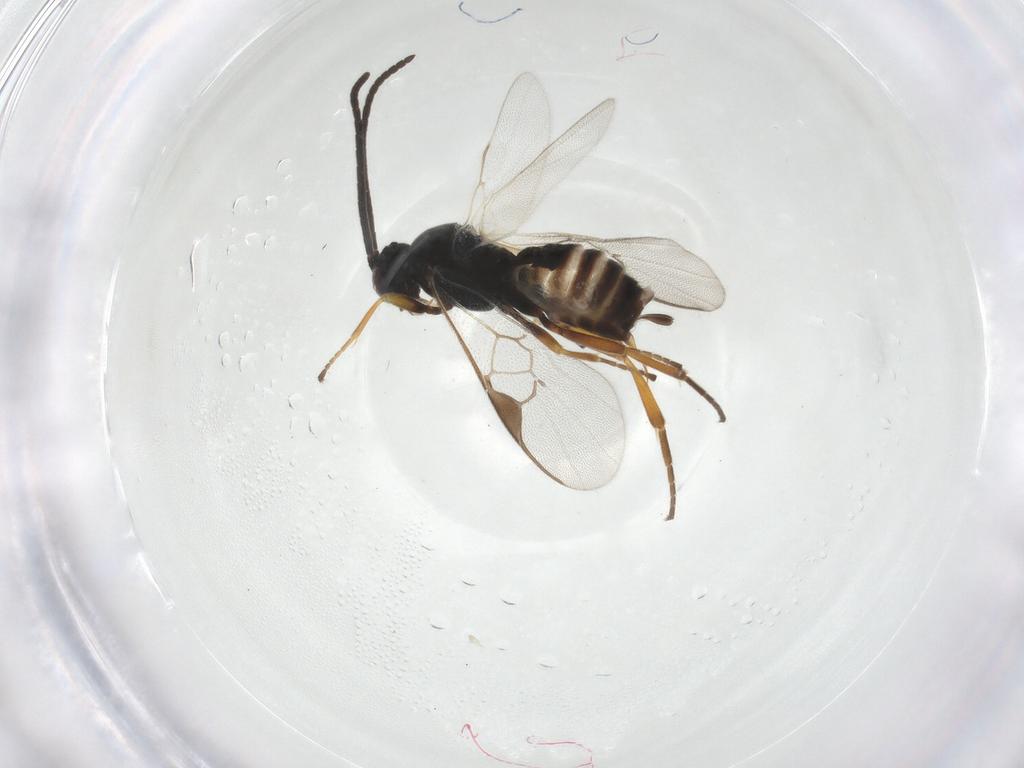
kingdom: Animalia
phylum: Arthropoda
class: Insecta
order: Hymenoptera
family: Braconidae
